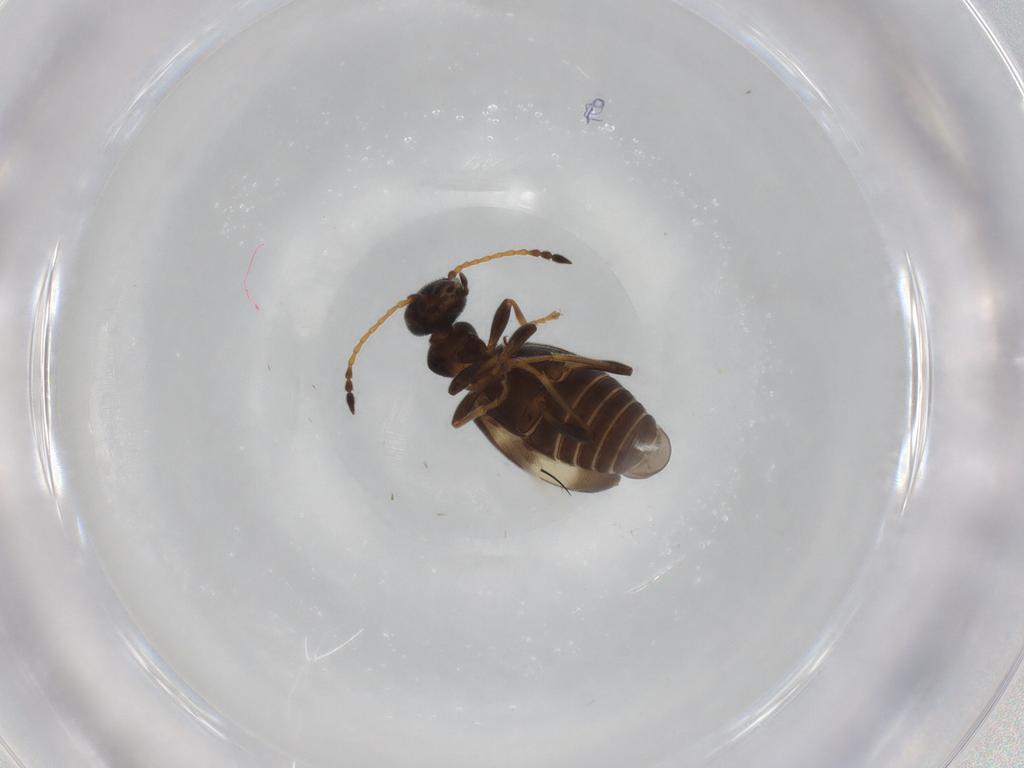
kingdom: Animalia
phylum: Arthropoda
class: Insecta
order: Coleoptera
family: Anthicidae
